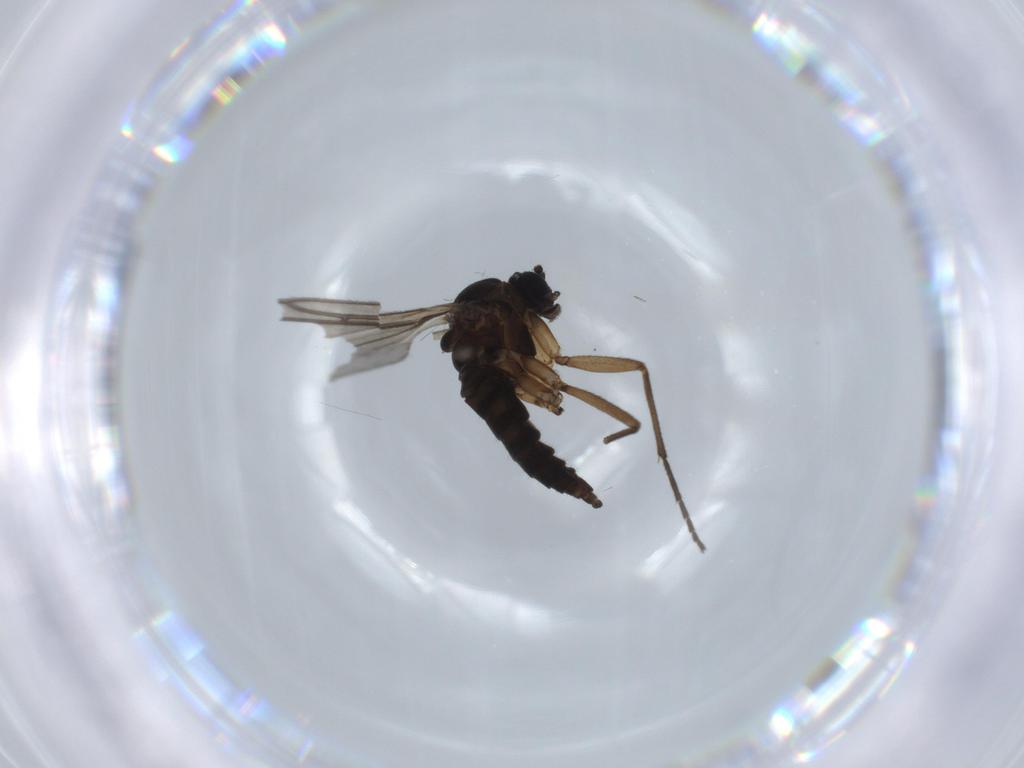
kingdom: Animalia
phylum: Arthropoda
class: Insecta
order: Diptera
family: Sciaridae
